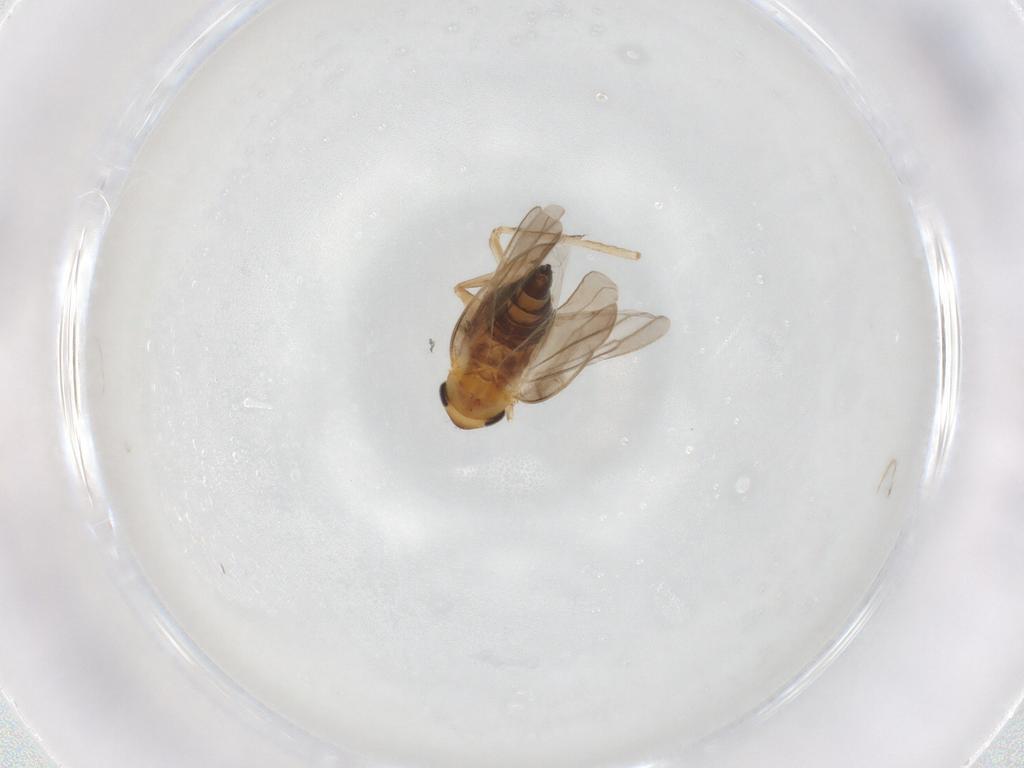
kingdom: Animalia
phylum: Arthropoda
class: Insecta
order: Hemiptera
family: Cicadellidae
